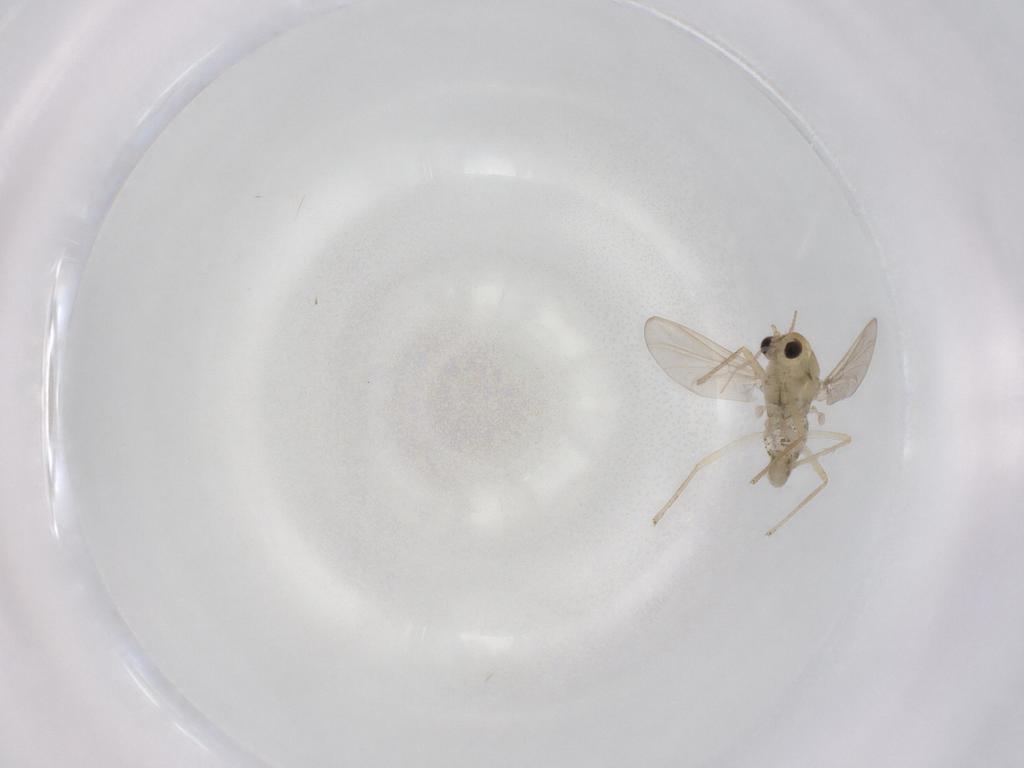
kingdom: Animalia
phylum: Arthropoda
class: Insecta
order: Diptera
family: Chironomidae
